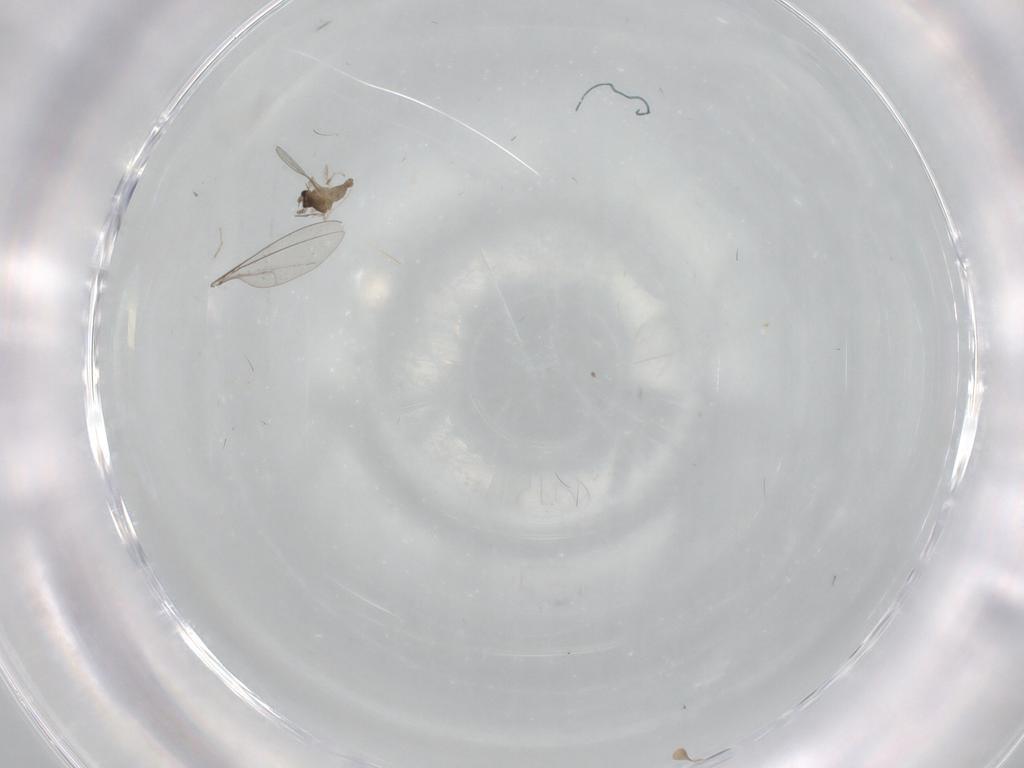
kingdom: Animalia
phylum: Arthropoda
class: Insecta
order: Diptera
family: Cecidomyiidae
